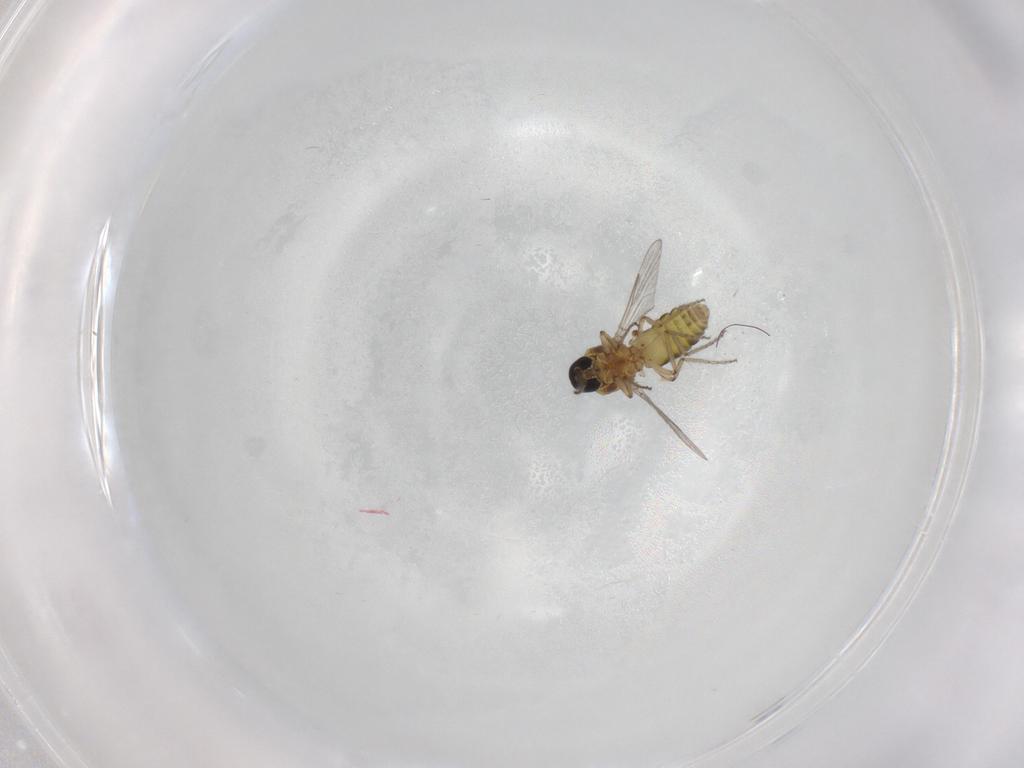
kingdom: Animalia
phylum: Arthropoda
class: Insecta
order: Diptera
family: Ceratopogonidae
